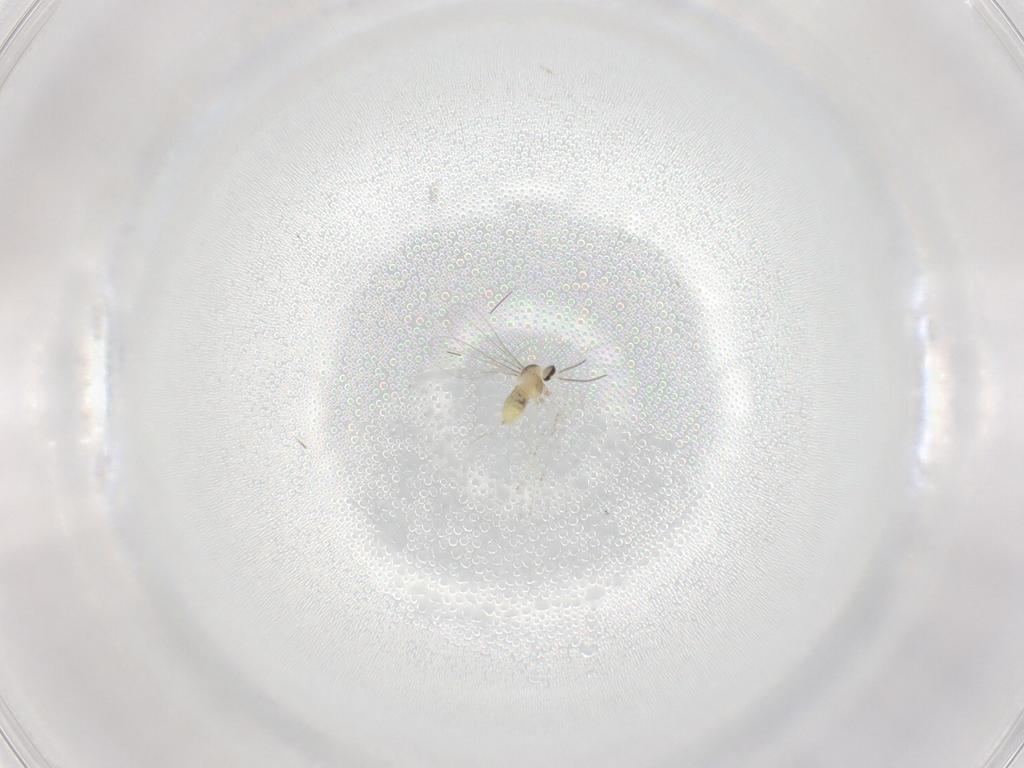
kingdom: Animalia
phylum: Arthropoda
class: Insecta
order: Diptera
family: Cecidomyiidae
